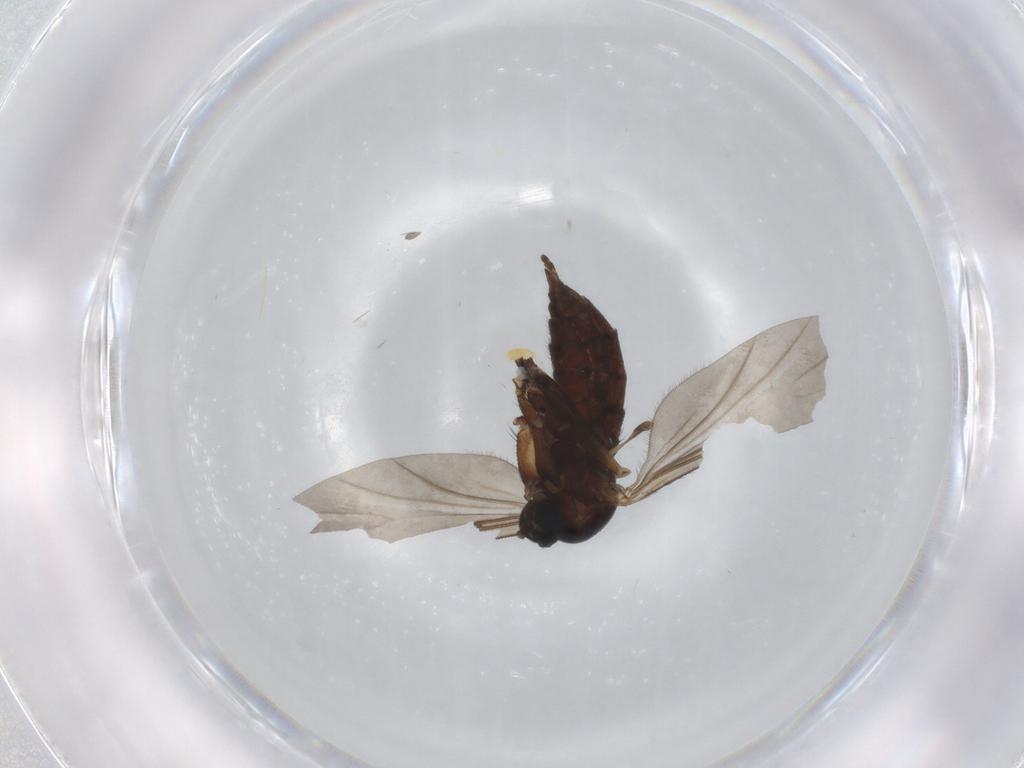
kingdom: Animalia
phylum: Arthropoda
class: Insecta
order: Diptera
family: Sciaridae
